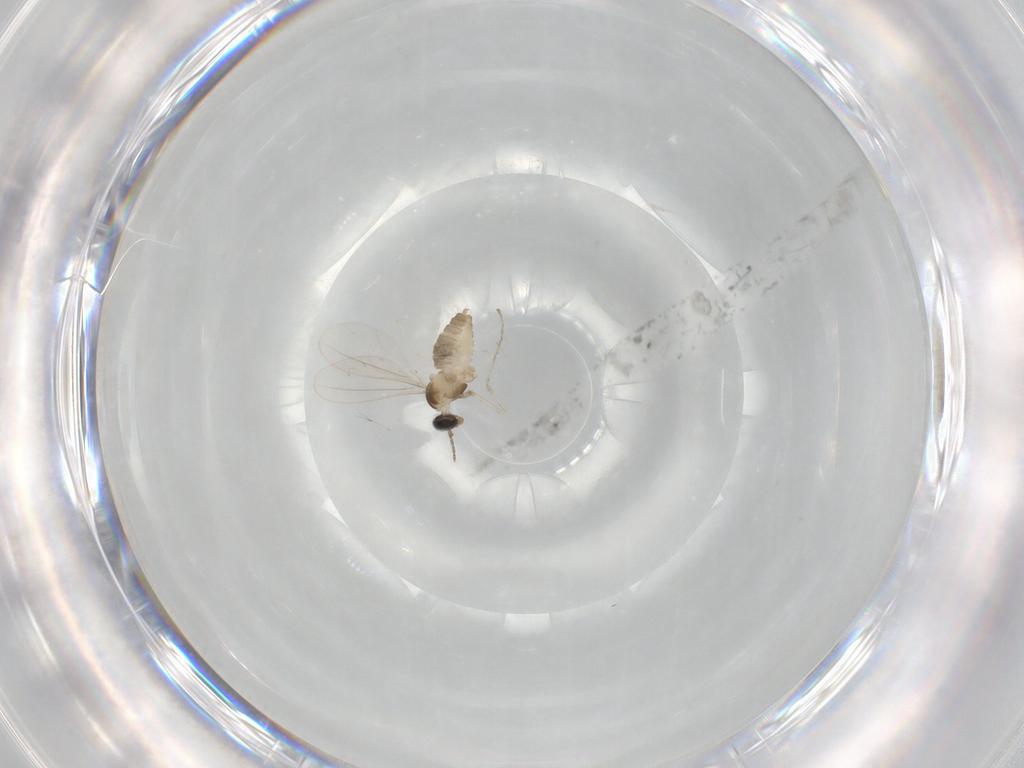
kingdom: Animalia
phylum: Arthropoda
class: Insecta
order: Diptera
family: Cecidomyiidae
